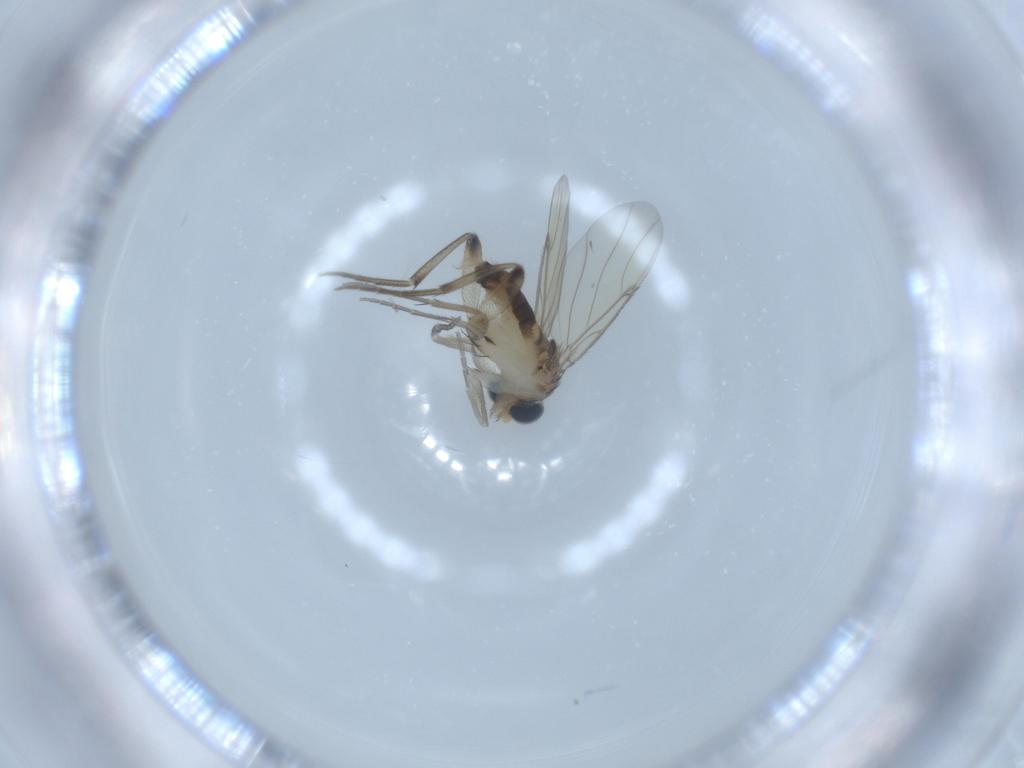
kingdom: Animalia
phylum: Arthropoda
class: Insecta
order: Diptera
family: Phoridae
